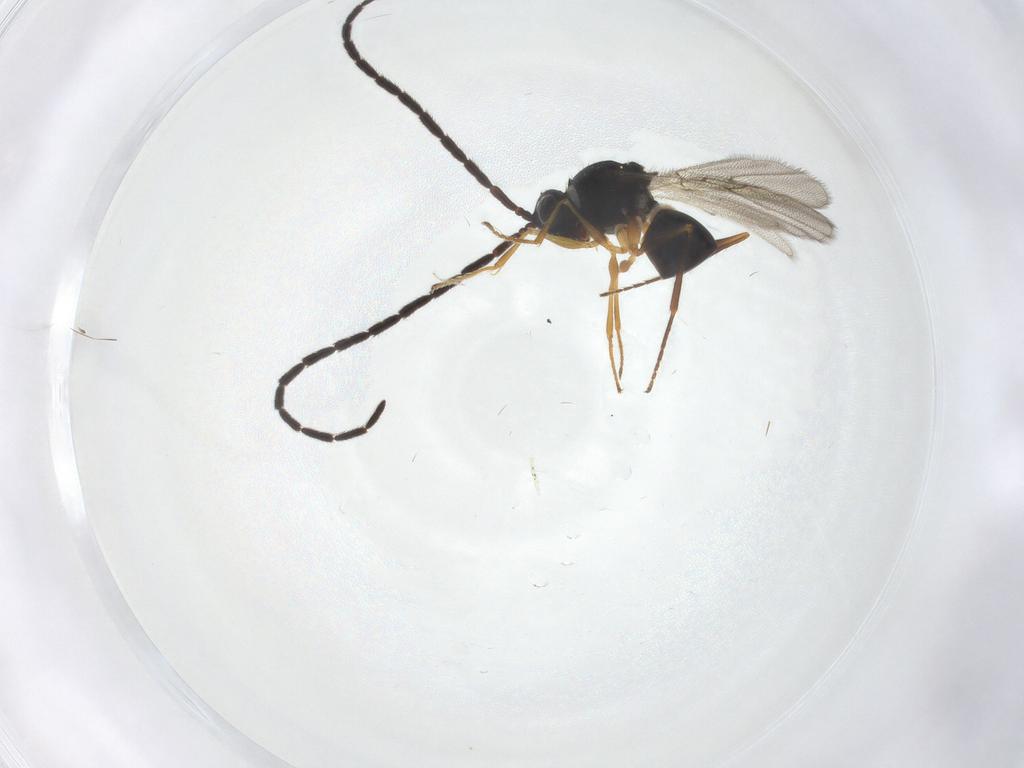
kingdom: Animalia
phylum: Arthropoda
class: Insecta
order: Hymenoptera
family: Figitidae
